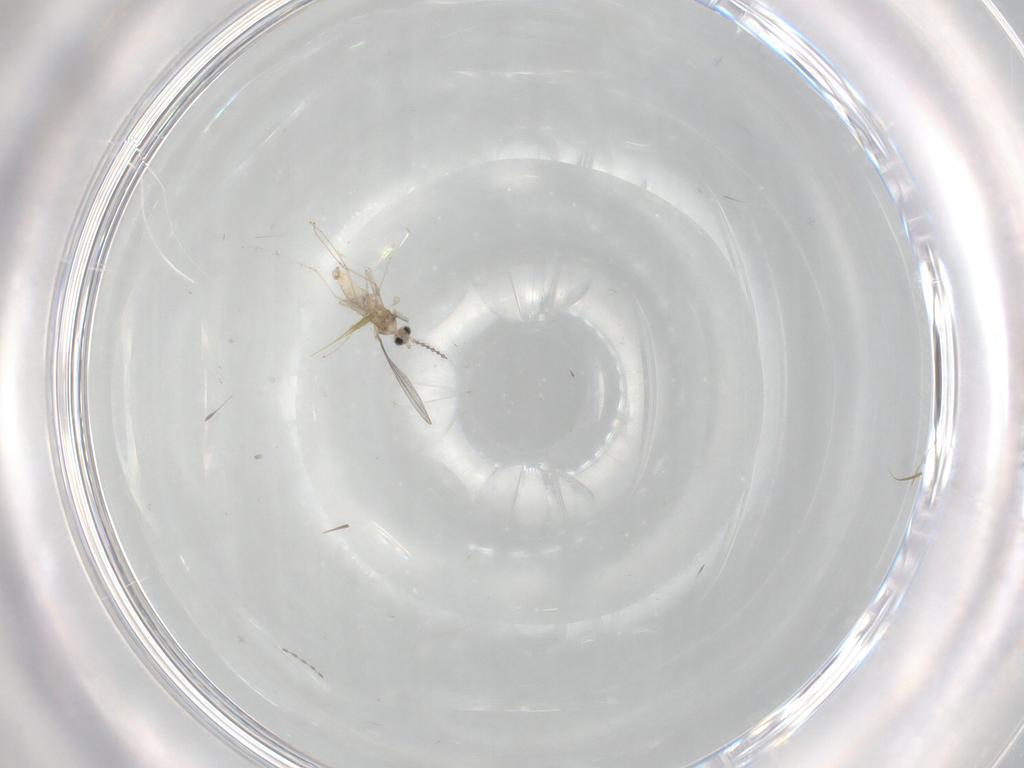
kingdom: Animalia
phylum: Arthropoda
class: Insecta
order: Diptera
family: Cecidomyiidae
